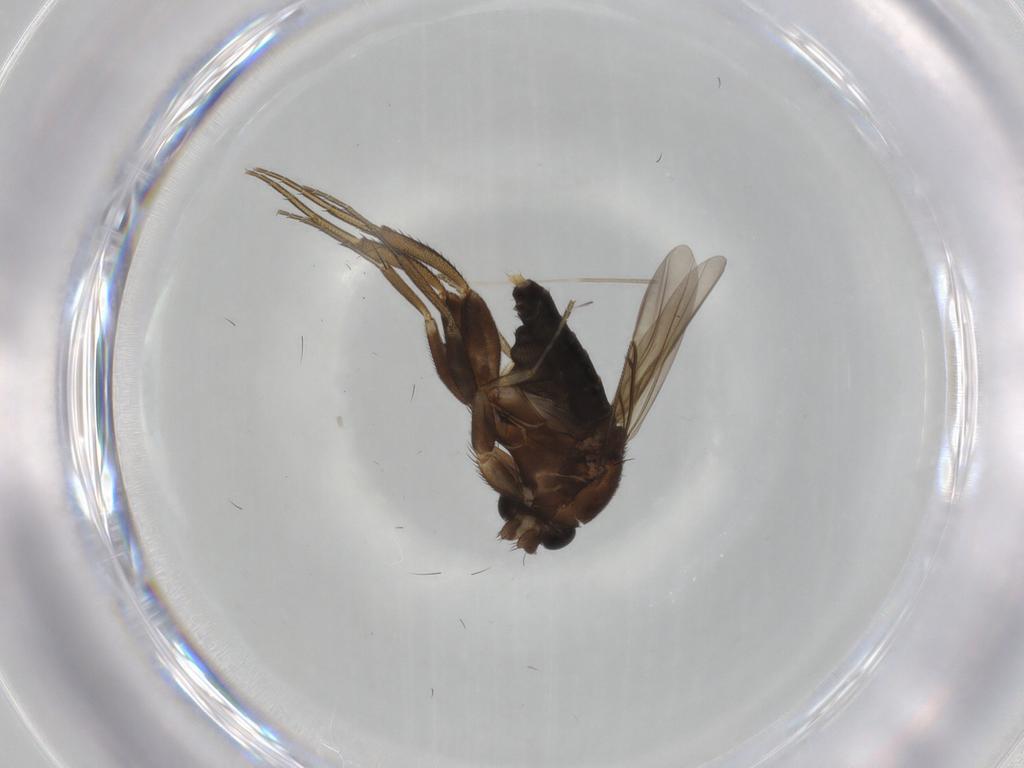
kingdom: Animalia
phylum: Arthropoda
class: Insecta
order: Diptera
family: Phoridae
